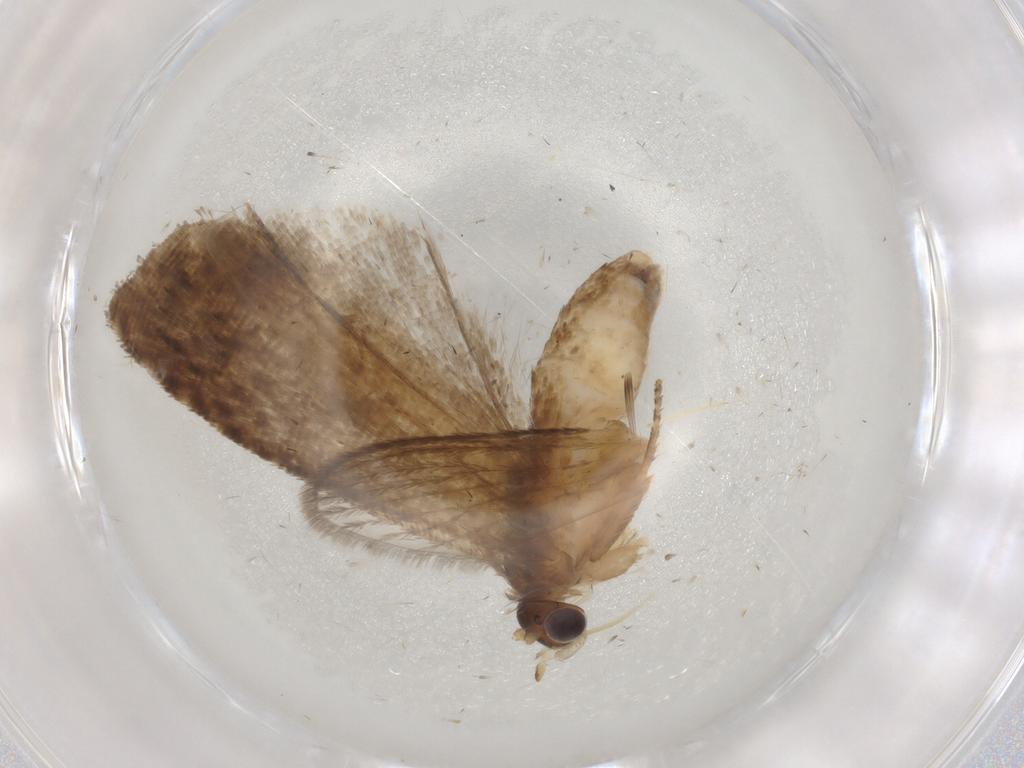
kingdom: Animalia
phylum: Arthropoda
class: Insecta
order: Lepidoptera
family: Tortricidae
